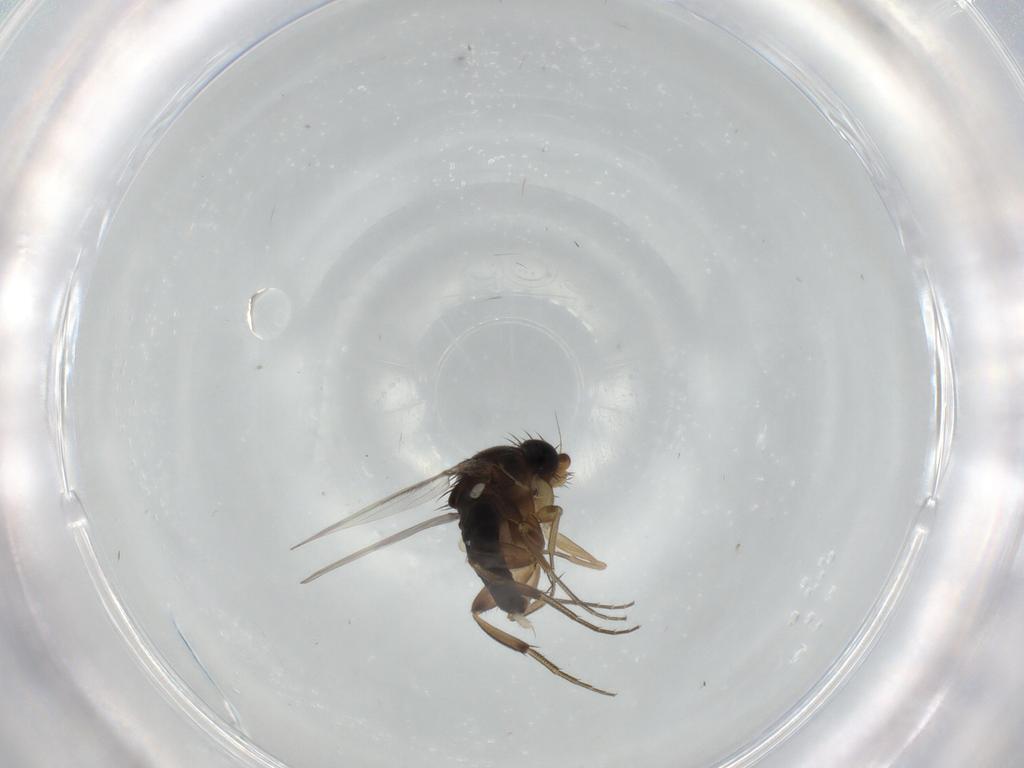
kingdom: Animalia
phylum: Arthropoda
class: Insecta
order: Diptera
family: Phoridae
